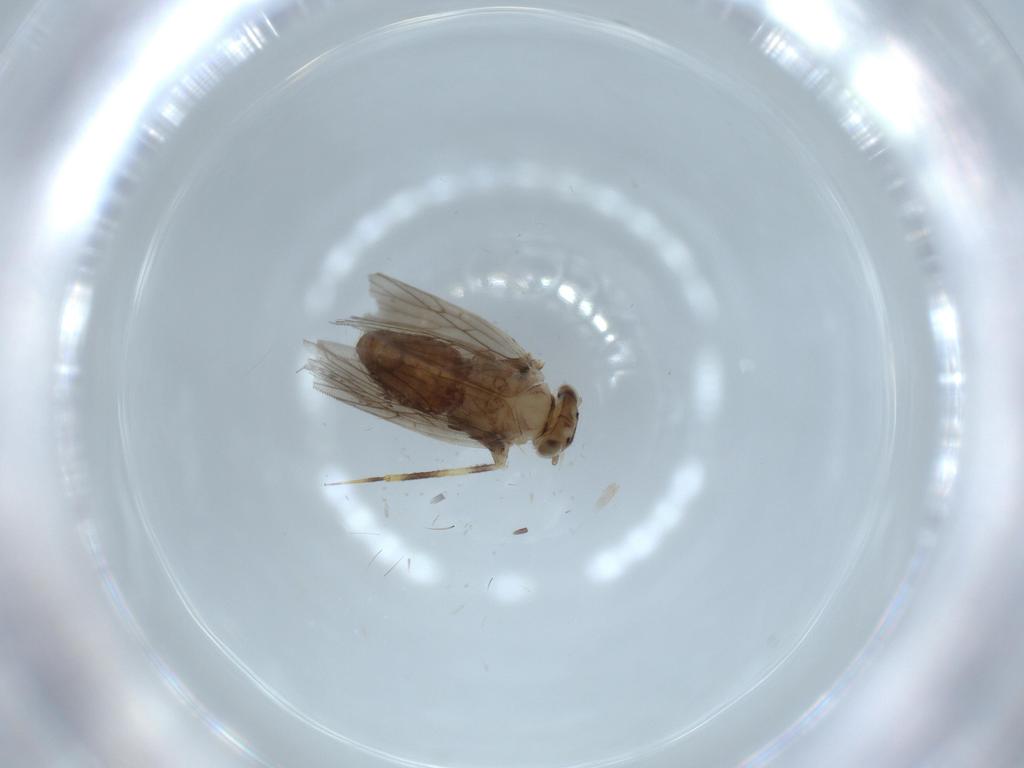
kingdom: Animalia
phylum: Arthropoda
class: Insecta
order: Psocodea
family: Lepidopsocidae
